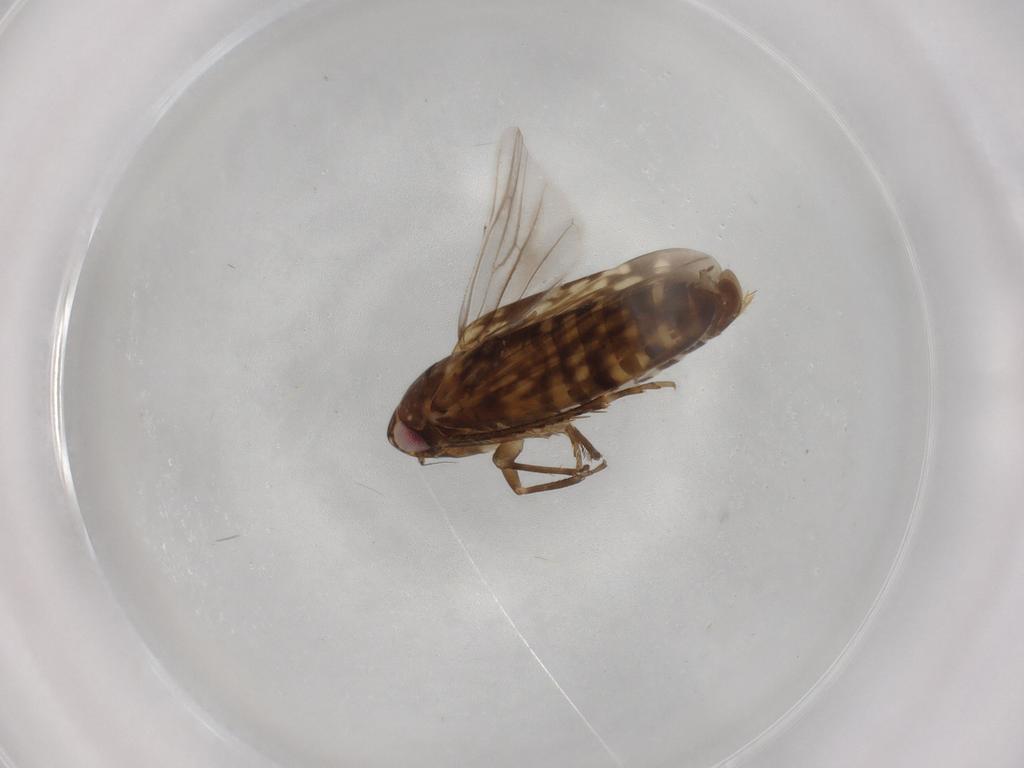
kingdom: Animalia
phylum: Arthropoda
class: Insecta
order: Hemiptera
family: Cicadellidae
